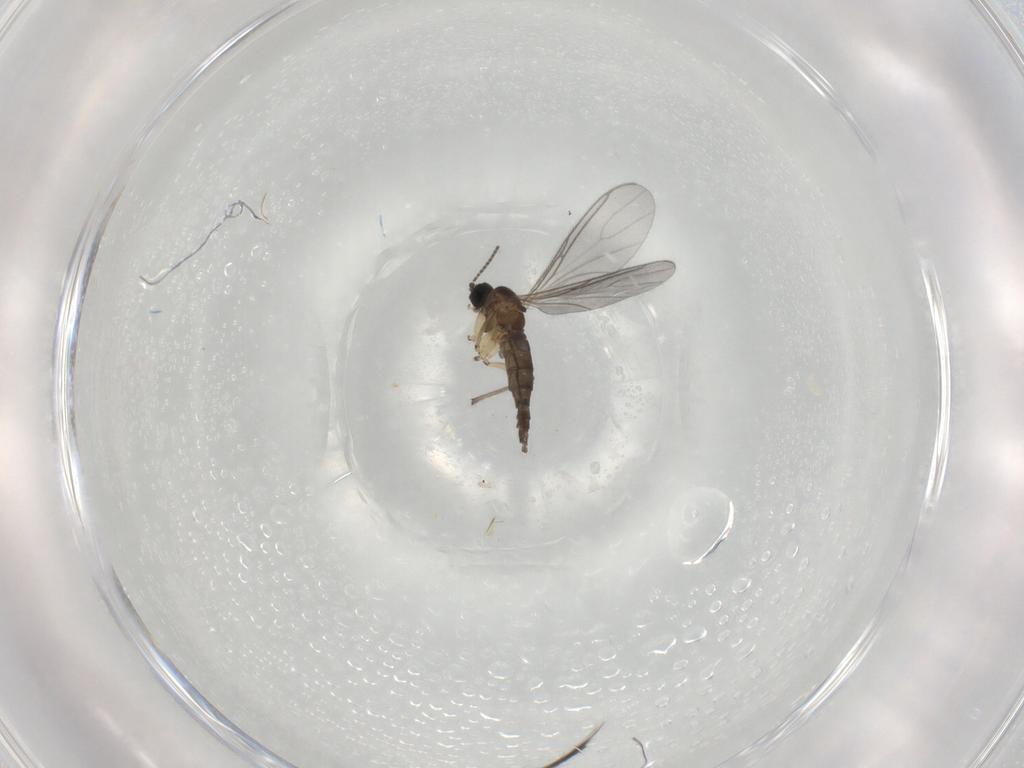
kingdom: Animalia
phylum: Arthropoda
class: Insecta
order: Diptera
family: Sciaridae
